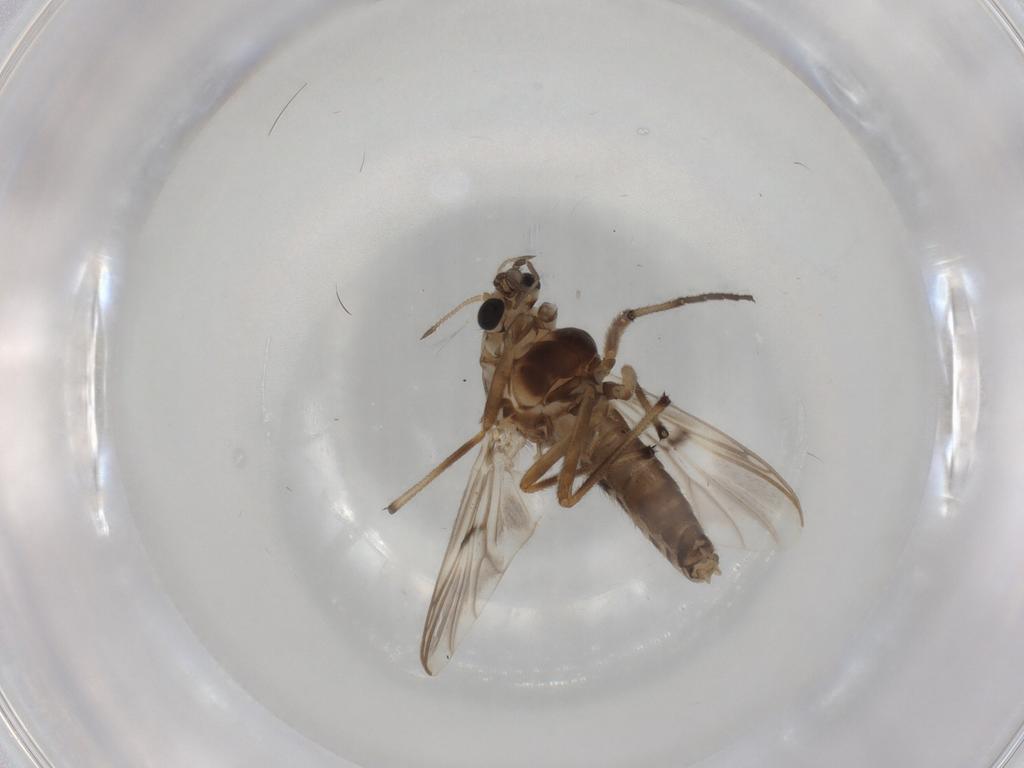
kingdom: Animalia
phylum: Arthropoda
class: Insecta
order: Diptera
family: Chironomidae
